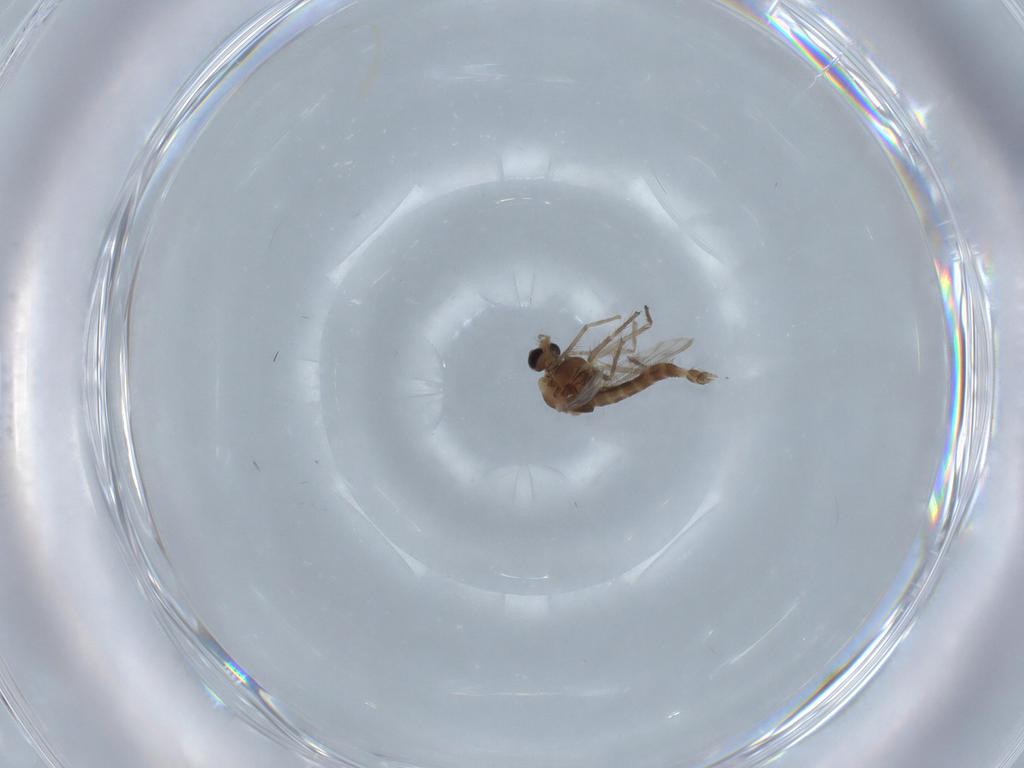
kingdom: Animalia
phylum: Arthropoda
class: Insecta
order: Diptera
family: Chironomidae
